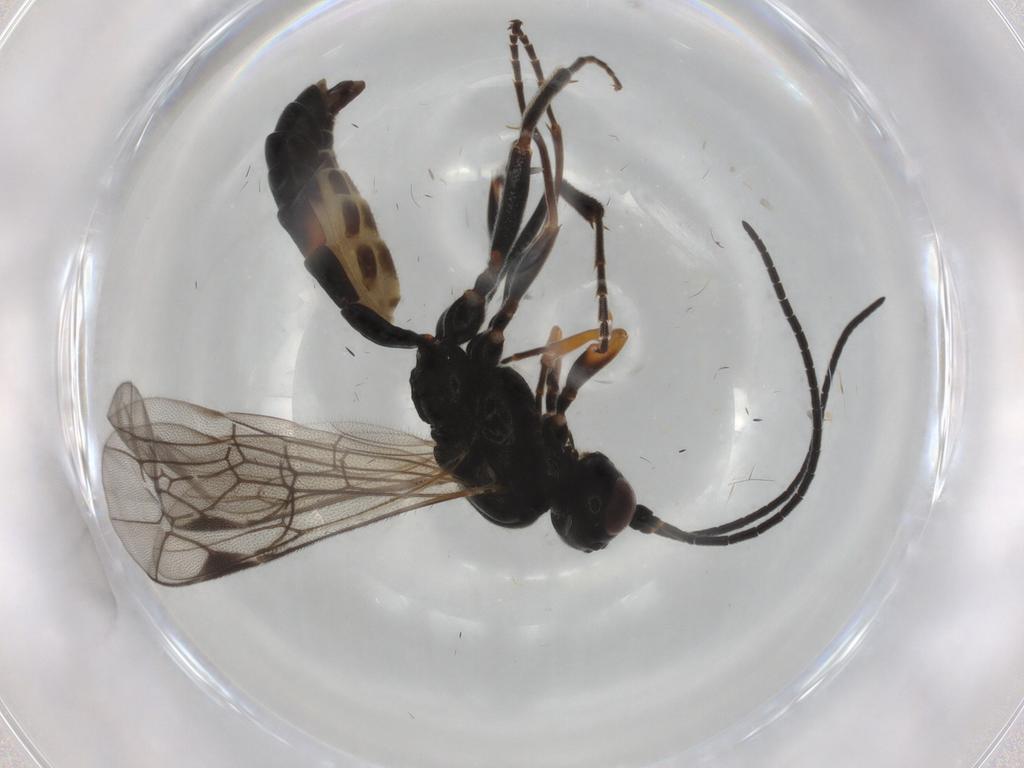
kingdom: Animalia
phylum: Arthropoda
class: Insecta
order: Hymenoptera
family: Ichneumonidae
